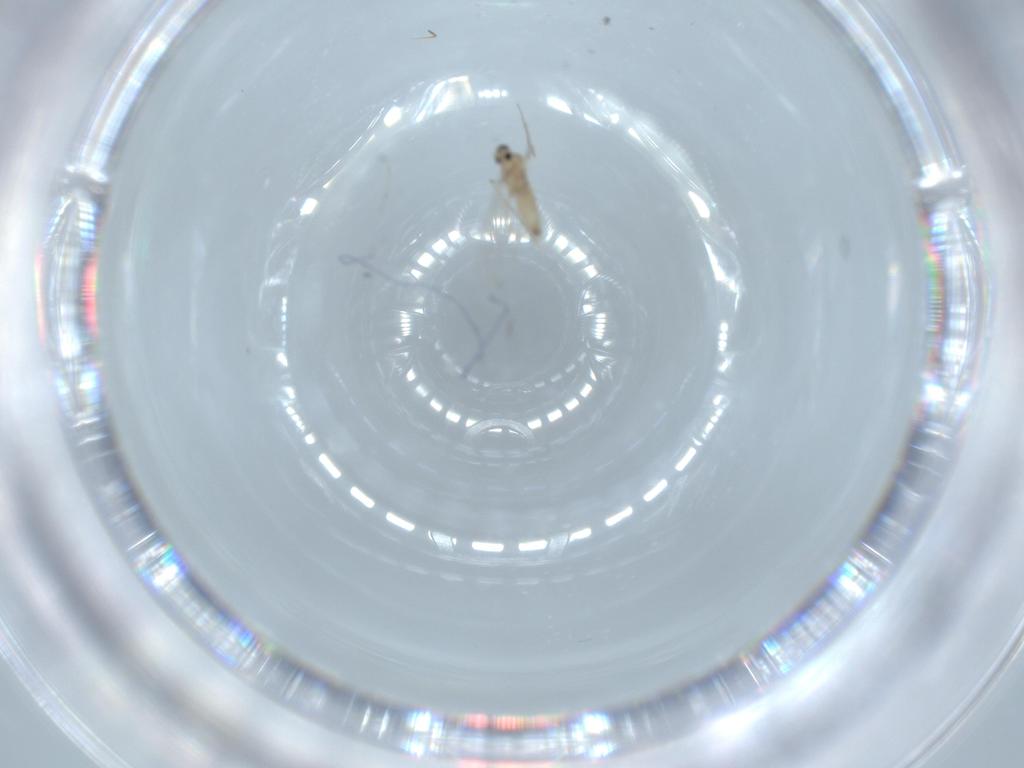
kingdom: Animalia
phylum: Arthropoda
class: Insecta
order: Diptera
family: Cecidomyiidae
